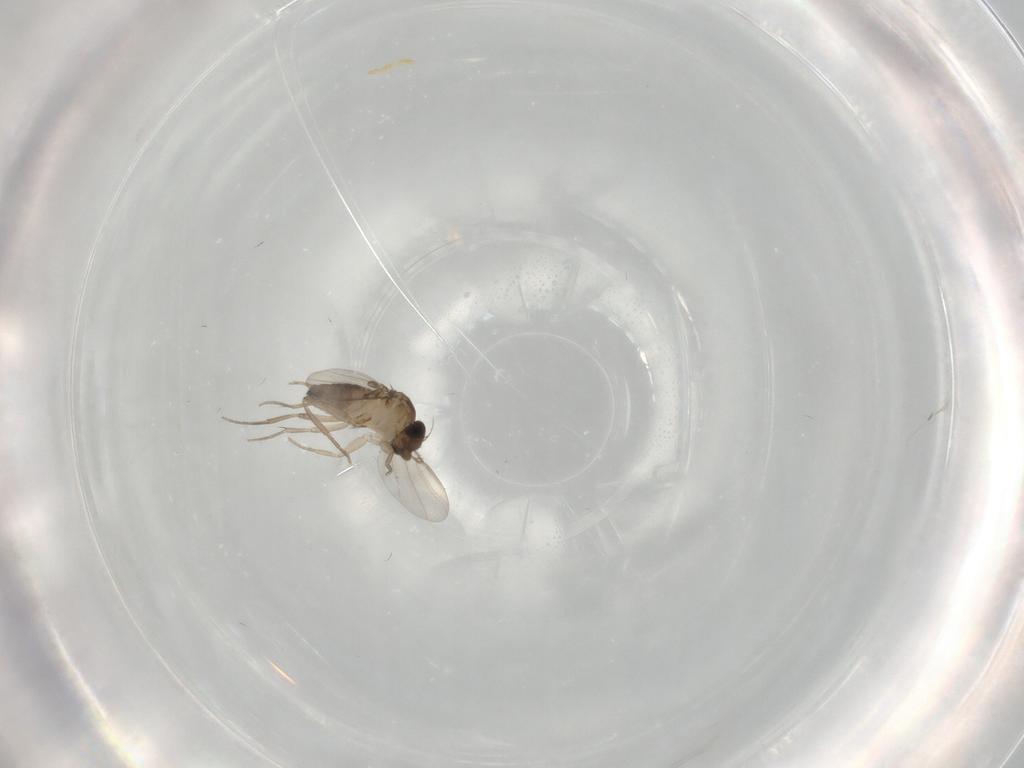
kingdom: Animalia
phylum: Arthropoda
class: Insecta
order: Diptera
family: Phoridae
